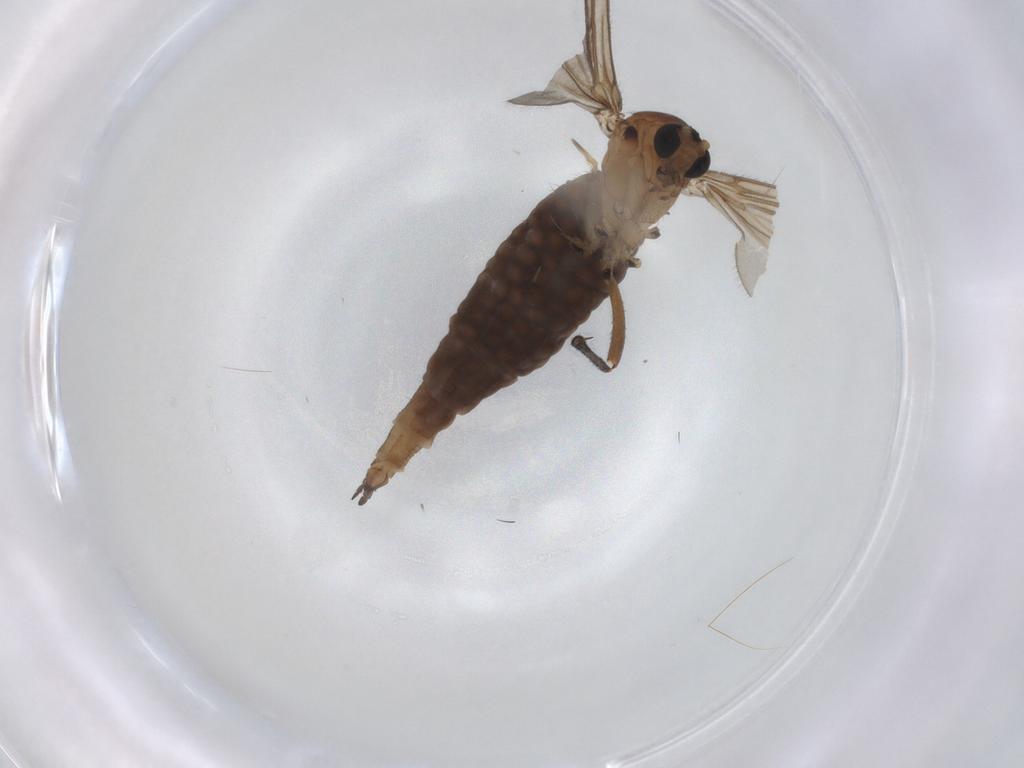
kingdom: Animalia
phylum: Arthropoda
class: Insecta
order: Diptera
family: Sciaridae
